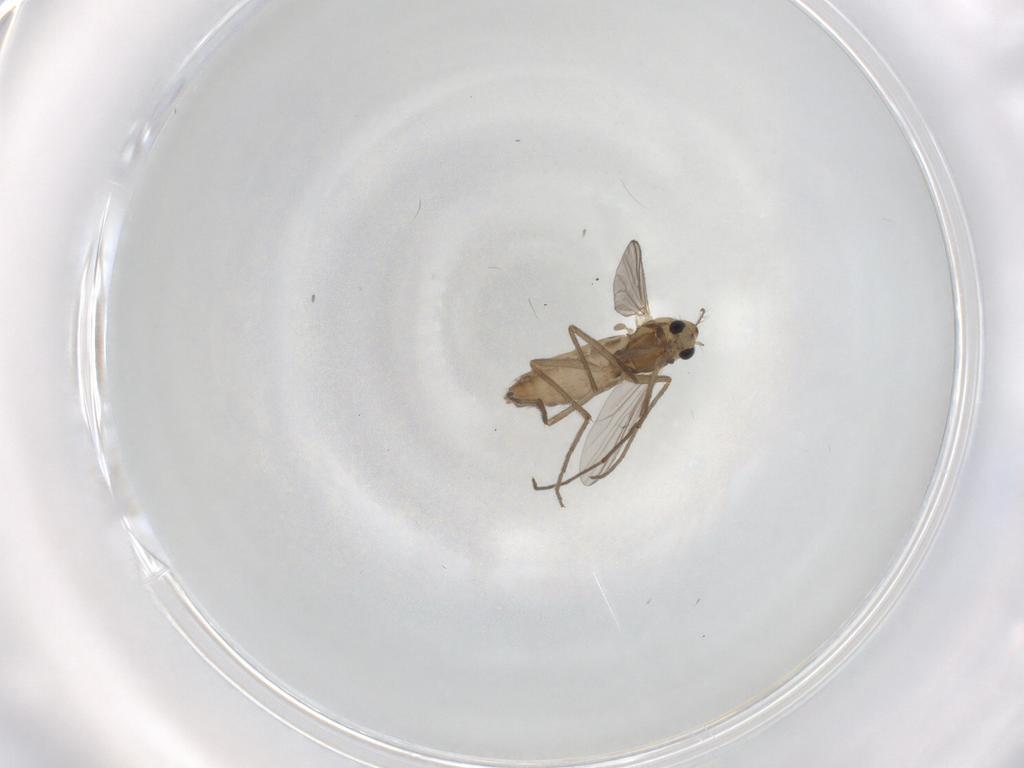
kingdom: Animalia
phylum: Arthropoda
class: Insecta
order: Diptera
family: Chironomidae
